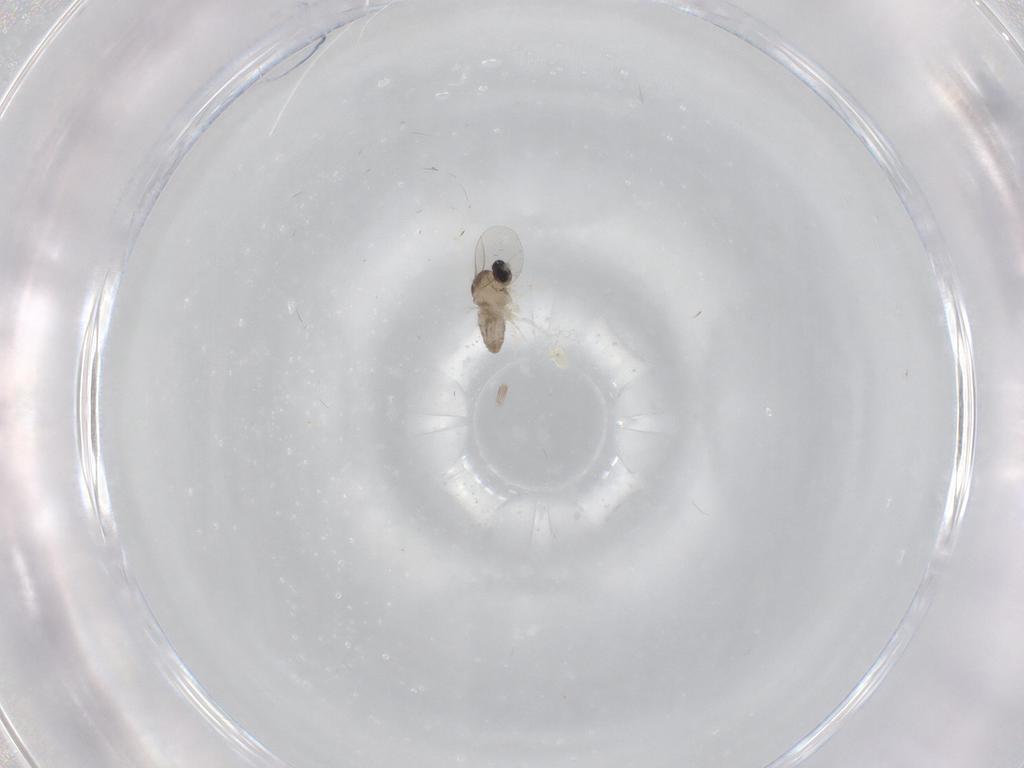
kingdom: Animalia
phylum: Arthropoda
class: Insecta
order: Diptera
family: Cecidomyiidae
